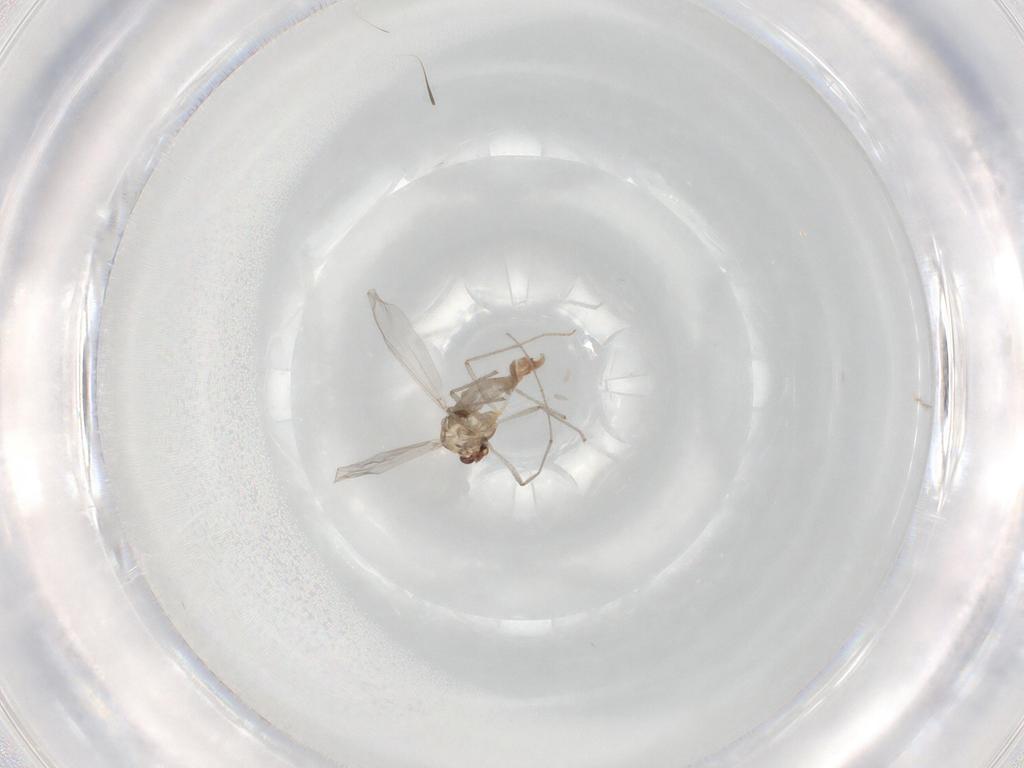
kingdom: Animalia
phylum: Arthropoda
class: Insecta
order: Diptera
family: Chironomidae
